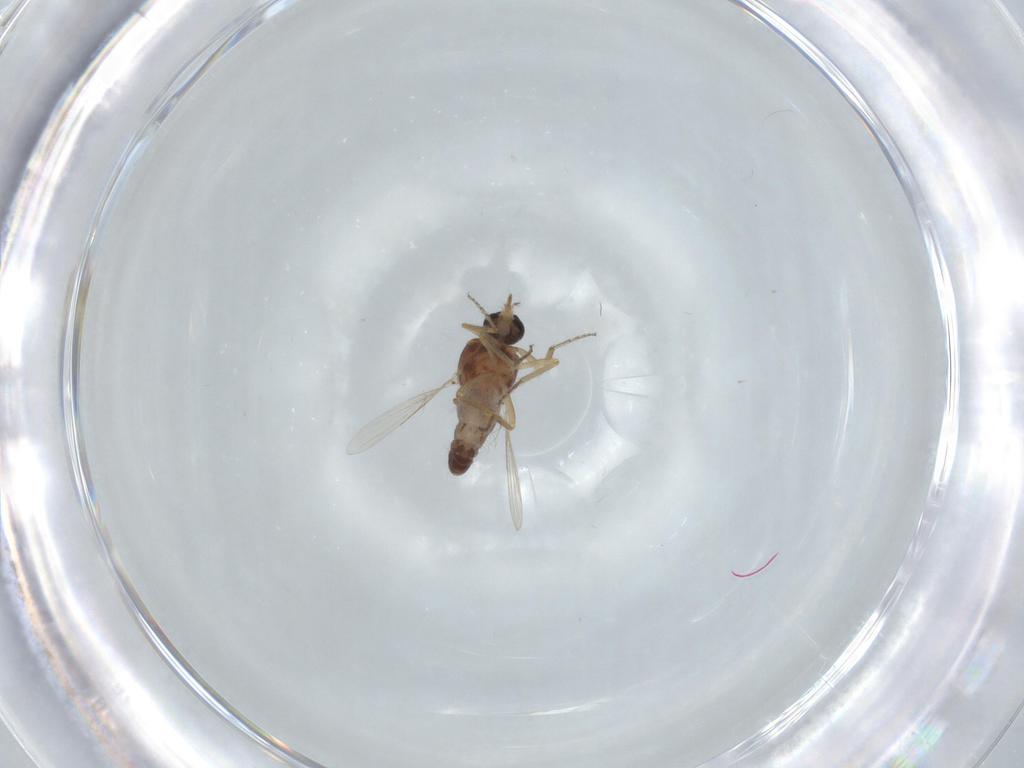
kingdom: Animalia
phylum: Arthropoda
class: Insecta
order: Diptera
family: Ceratopogonidae
